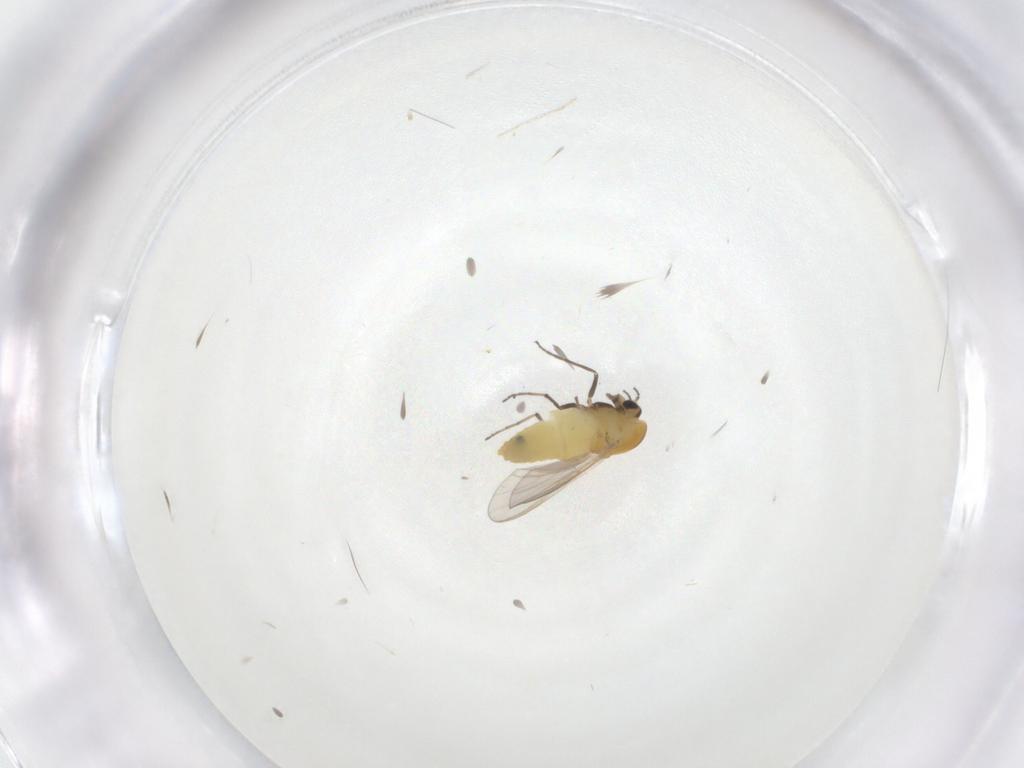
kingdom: Animalia
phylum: Arthropoda
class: Insecta
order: Diptera
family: Chironomidae
